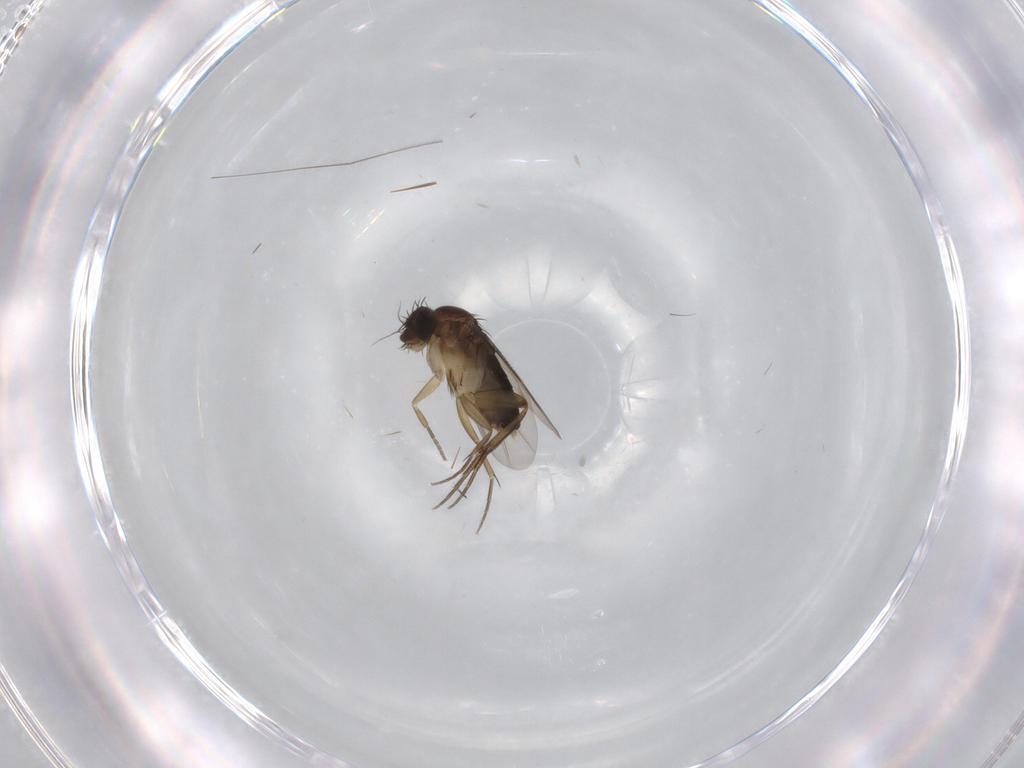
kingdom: Animalia
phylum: Arthropoda
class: Insecta
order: Diptera
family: Phoridae
